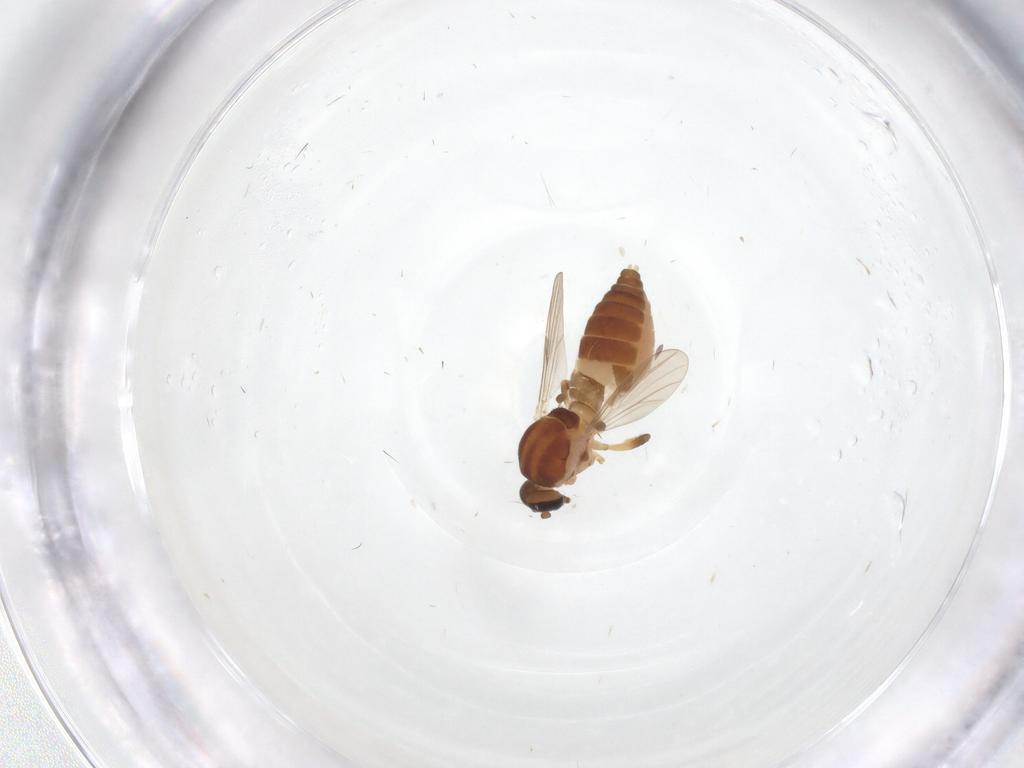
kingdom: Animalia
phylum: Arthropoda
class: Insecta
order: Diptera
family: Ceratopogonidae
